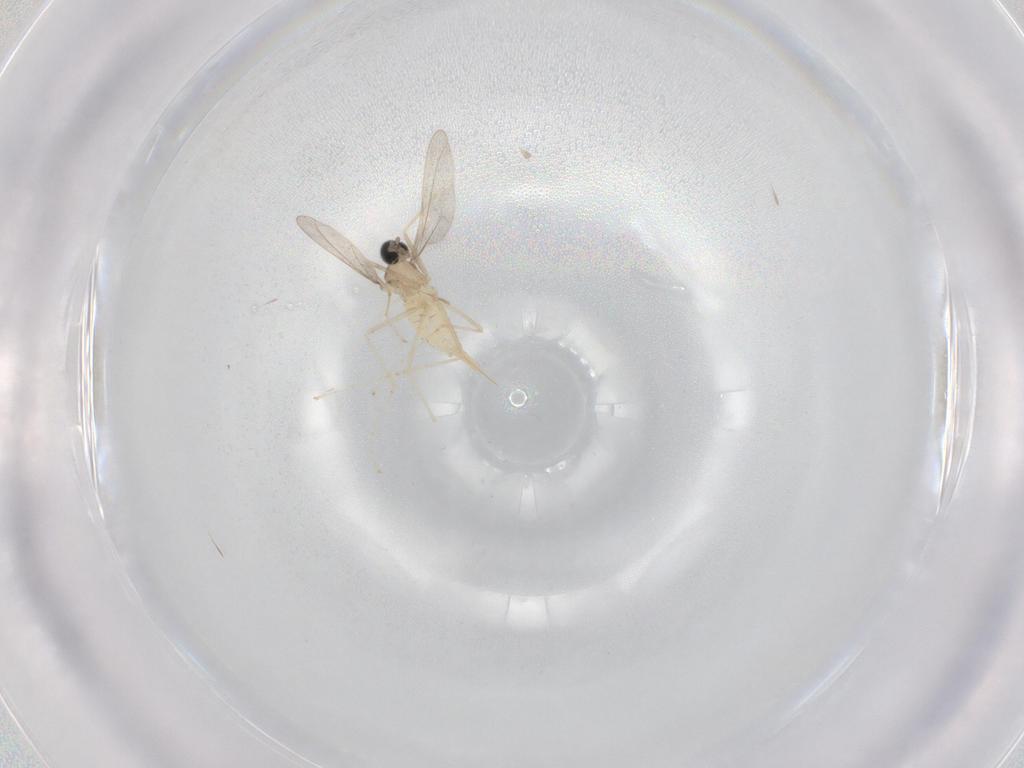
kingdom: Animalia
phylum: Arthropoda
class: Insecta
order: Diptera
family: Cecidomyiidae
